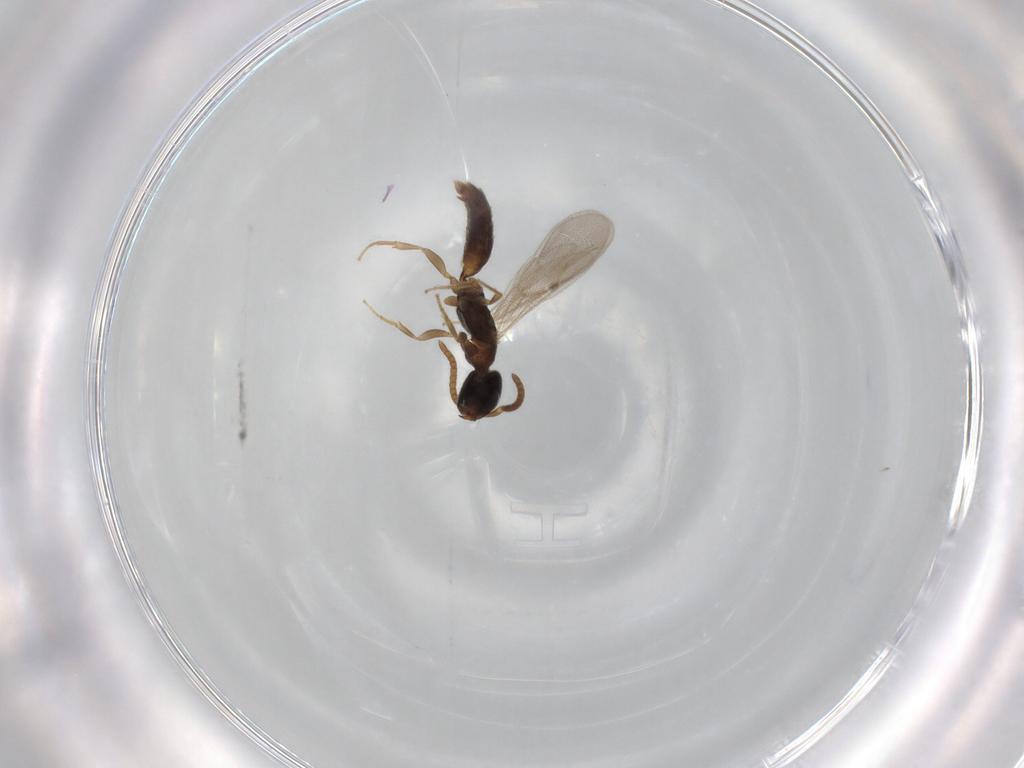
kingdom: Animalia
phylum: Arthropoda
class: Insecta
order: Hymenoptera
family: Bethylidae
